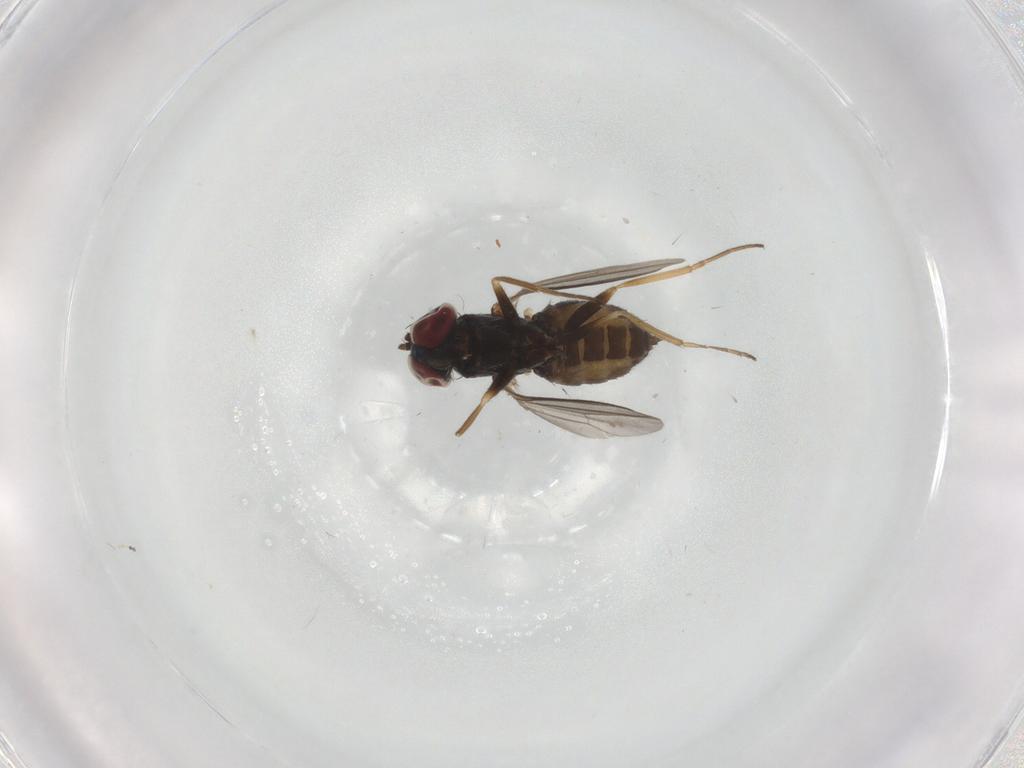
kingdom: Animalia
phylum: Arthropoda
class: Insecta
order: Diptera
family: Dolichopodidae
